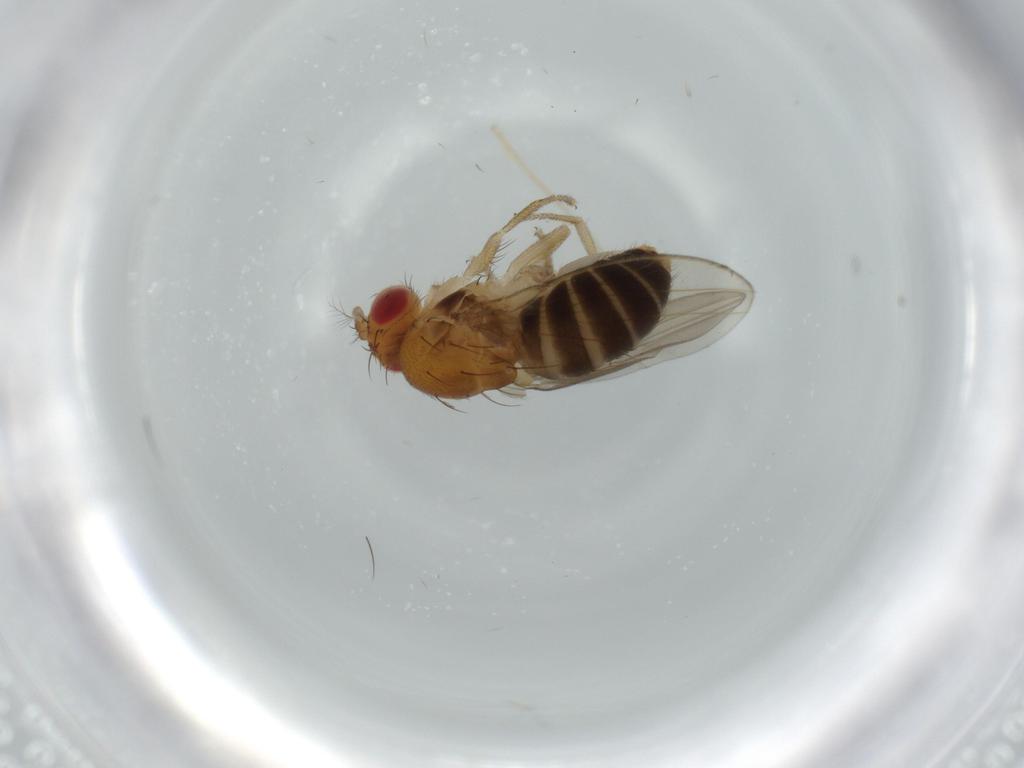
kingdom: Animalia
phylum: Arthropoda
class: Insecta
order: Diptera
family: Drosophilidae
